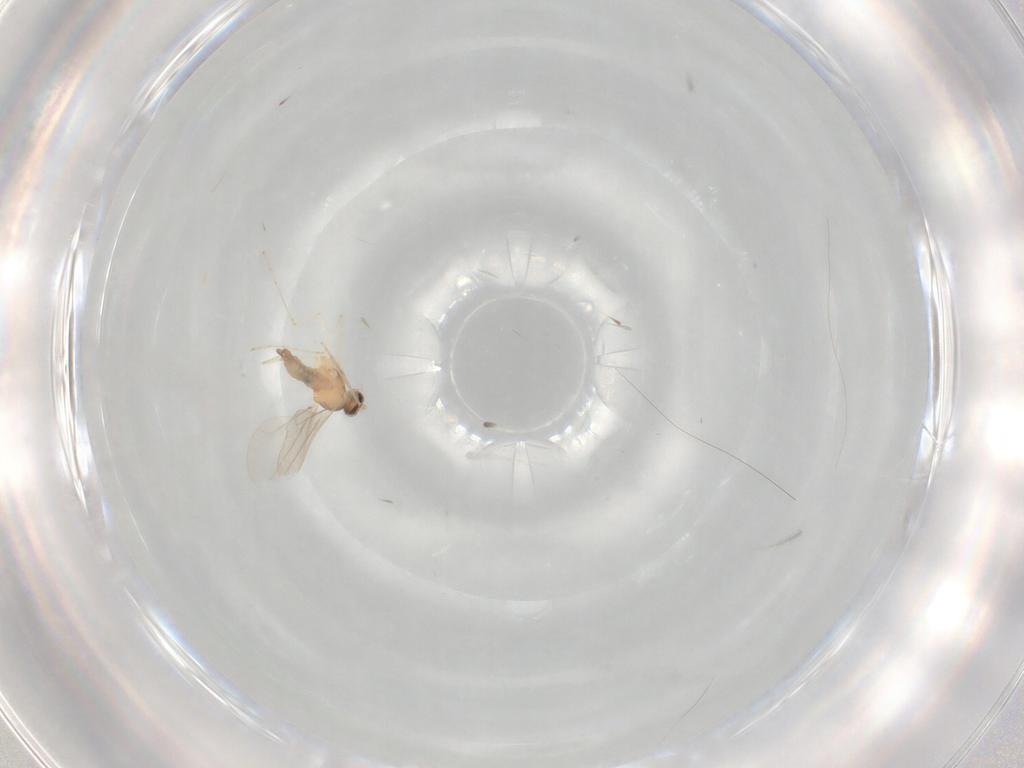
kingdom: Animalia
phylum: Arthropoda
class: Insecta
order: Diptera
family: Cecidomyiidae
